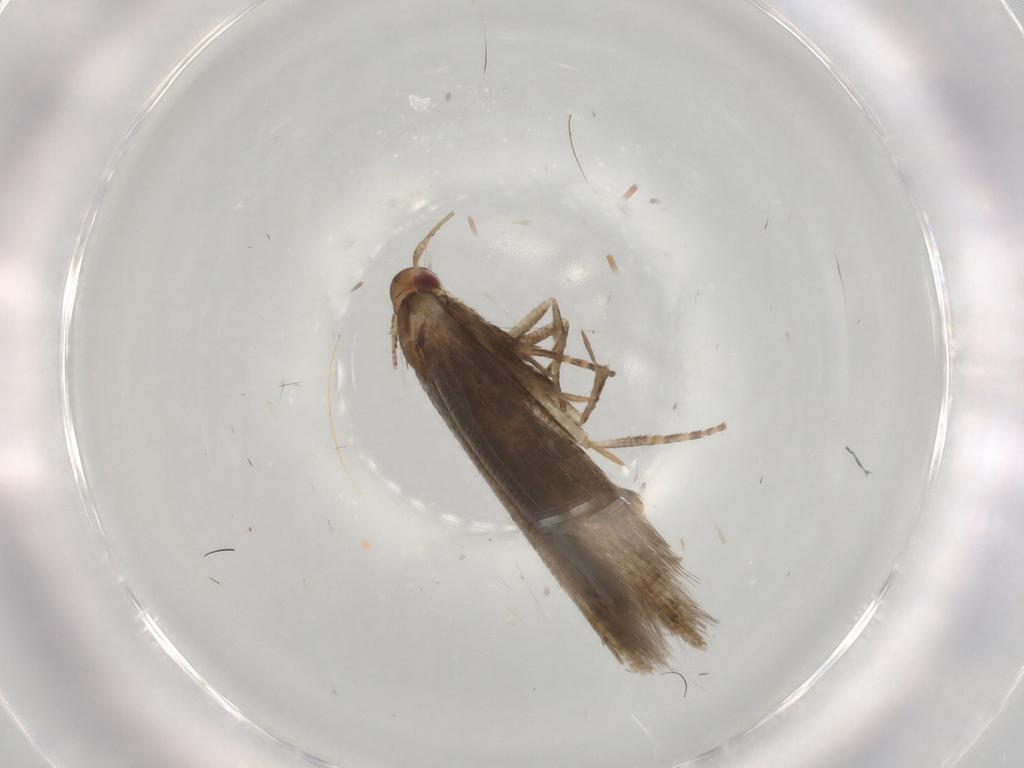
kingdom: Animalia
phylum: Arthropoda
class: Insecta
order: Lepidoptera
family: Momphidae
